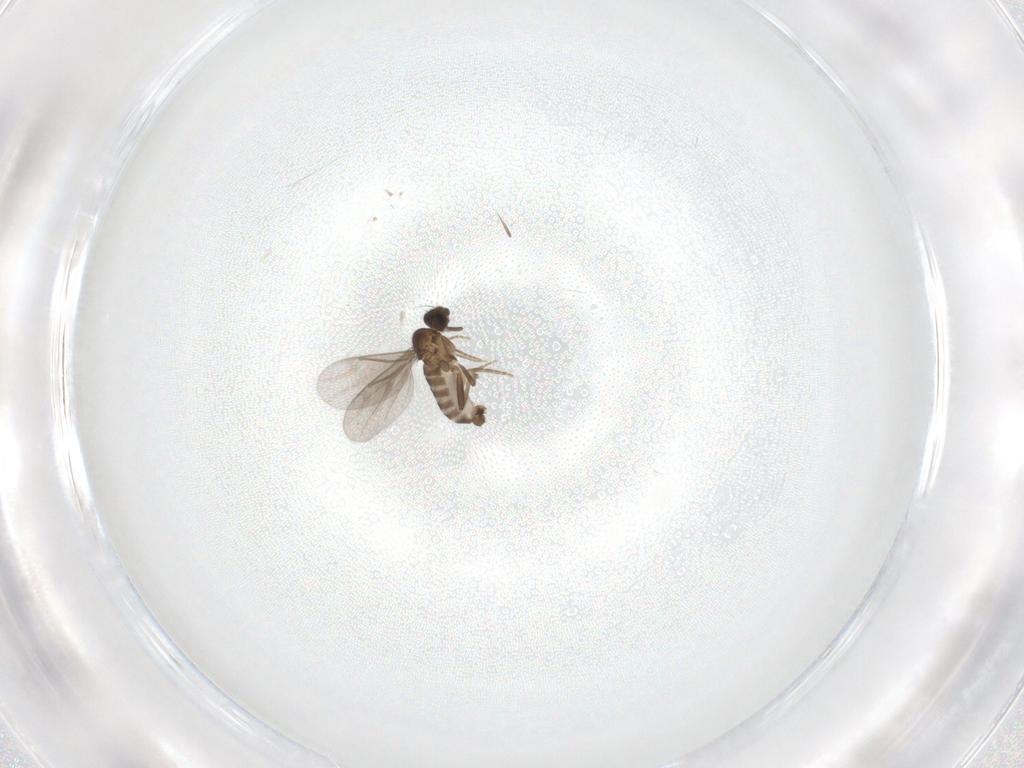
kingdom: Animalia
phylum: Arthropoda
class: Insecta
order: Diptera
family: Cecidomyiidae
